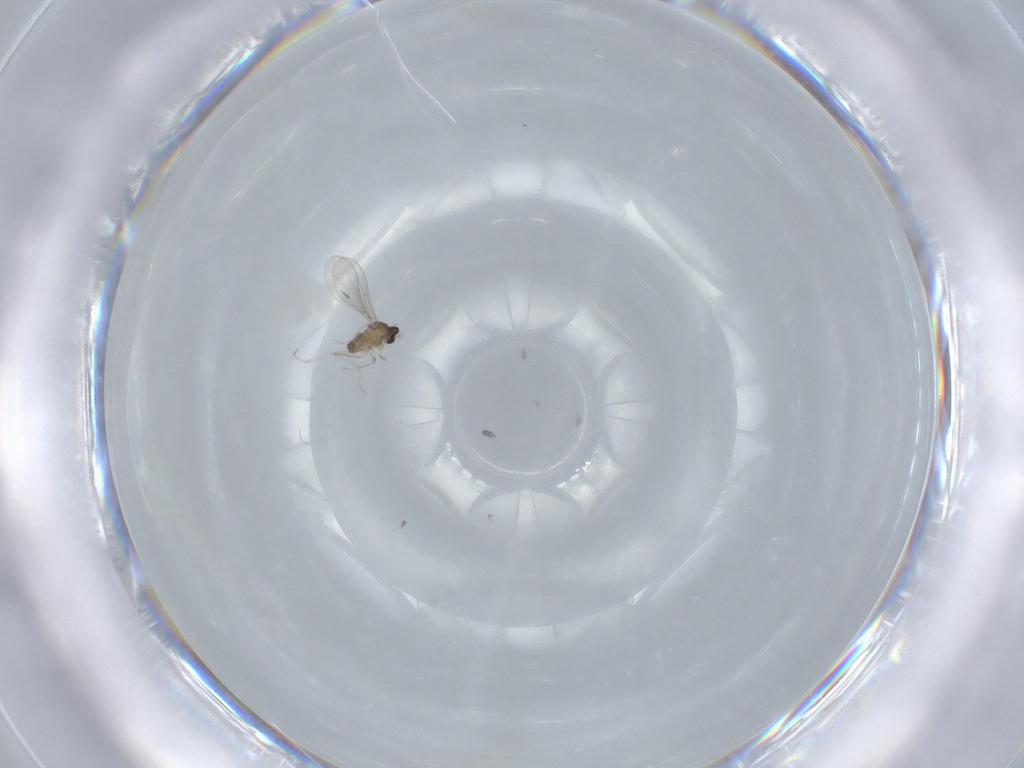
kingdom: Animalia
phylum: Arthropoda
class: Insecta
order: Diptera
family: Cecidomyiidae
